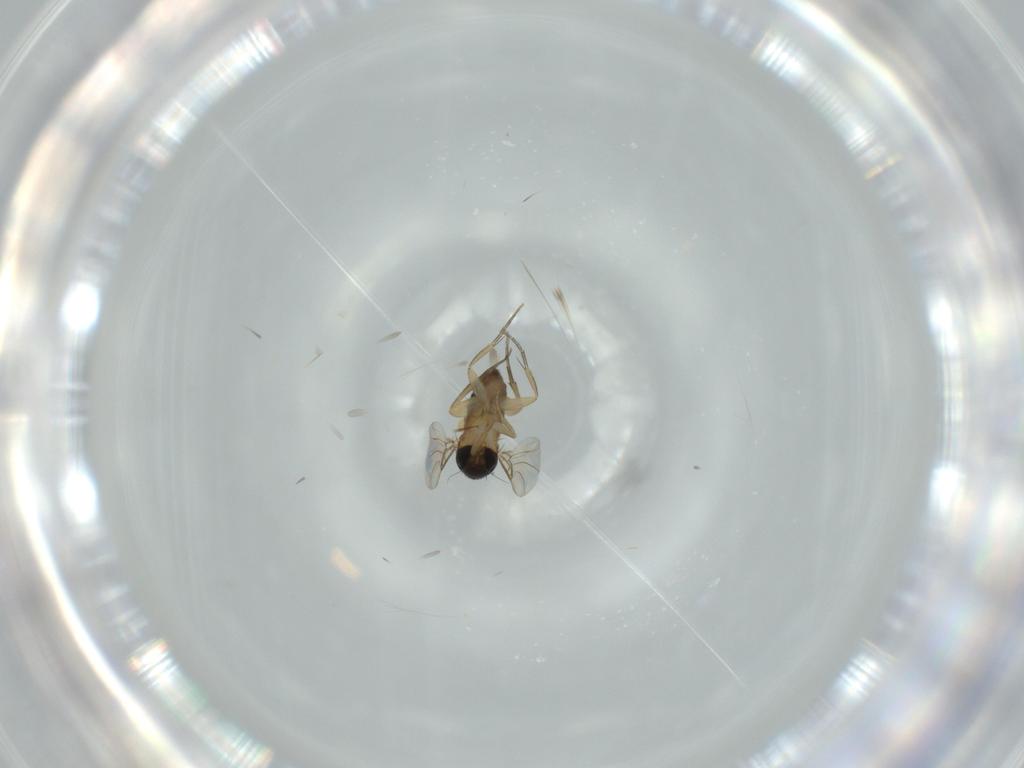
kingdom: Animalia
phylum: Arthropoda
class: Insecta
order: Diptera
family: Phoridae
